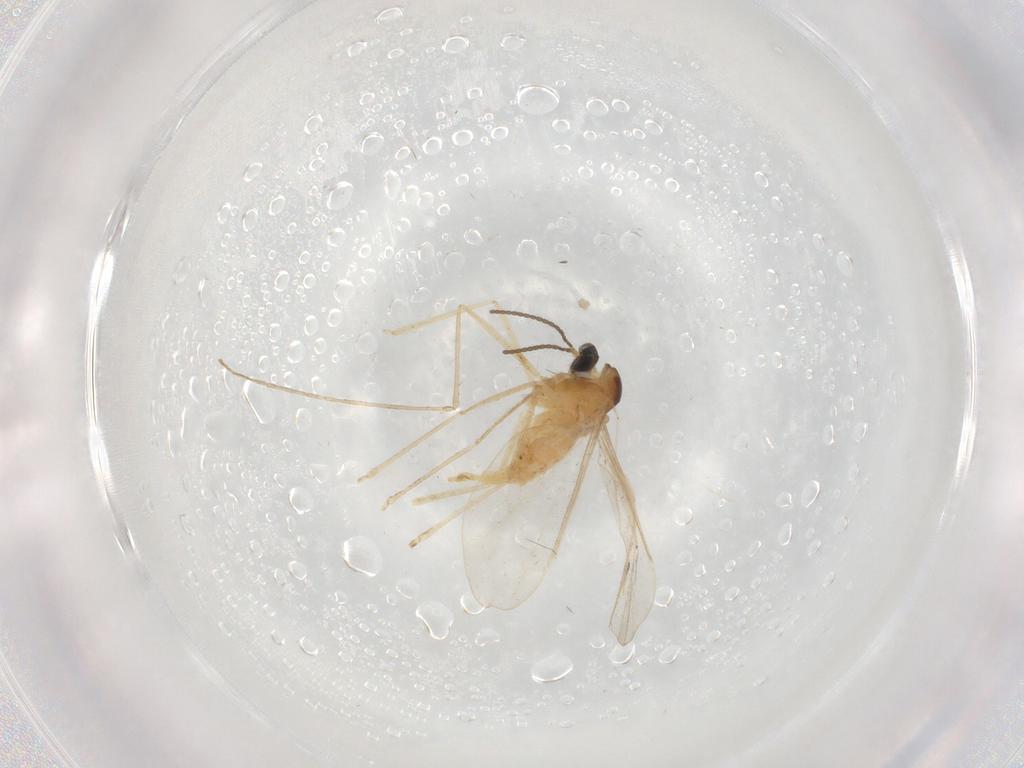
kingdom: Animalia
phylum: Arthropoda
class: Insecta
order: Diptera
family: Cecidomyiidae
